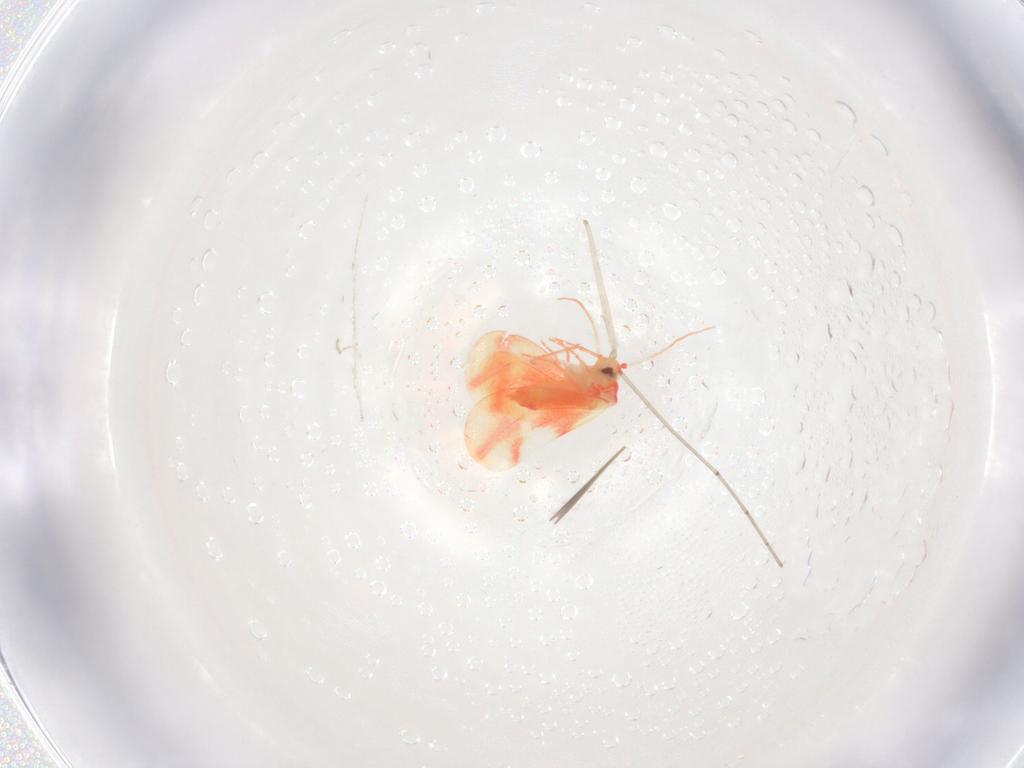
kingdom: Animalia
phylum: Arthropoda
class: Insecta
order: Hemiptera
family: Aleyrodidae
